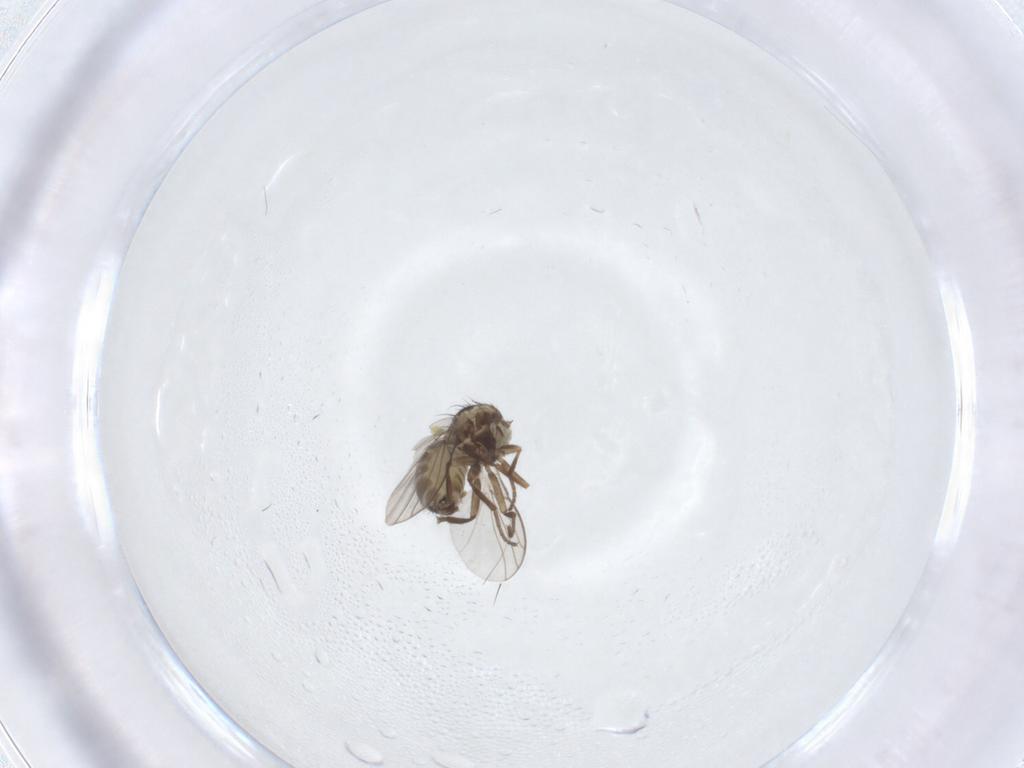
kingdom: Animalia
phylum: Arthropoda
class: Insecta
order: Diptera
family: Agromyzidae
